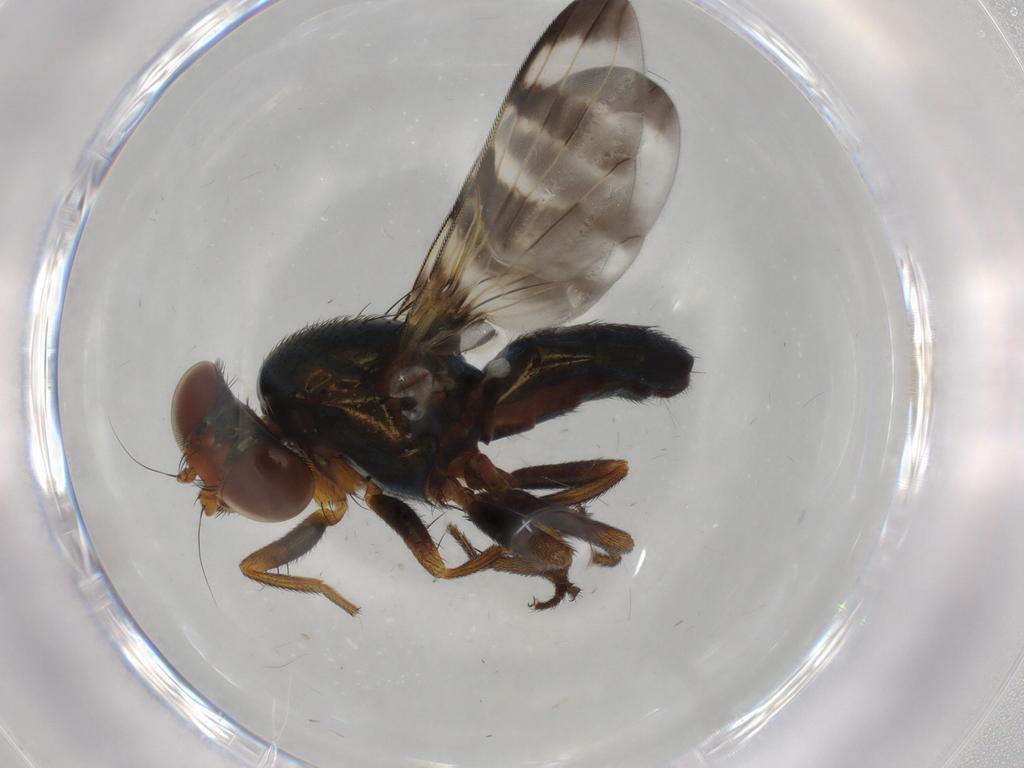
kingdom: Animalia
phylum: Arthropoda
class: Insecta
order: Diptera
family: Ulidiidae
